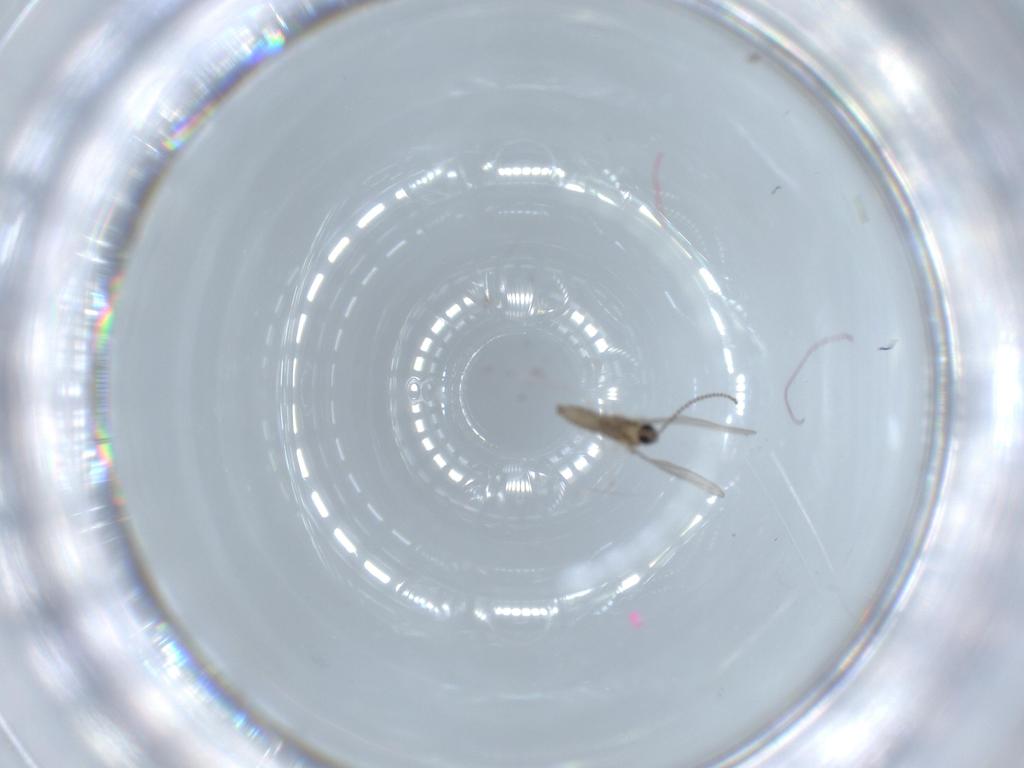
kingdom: Animalia
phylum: Arthropoda
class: Insecta
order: Diptera
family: Cecidomyiidae
